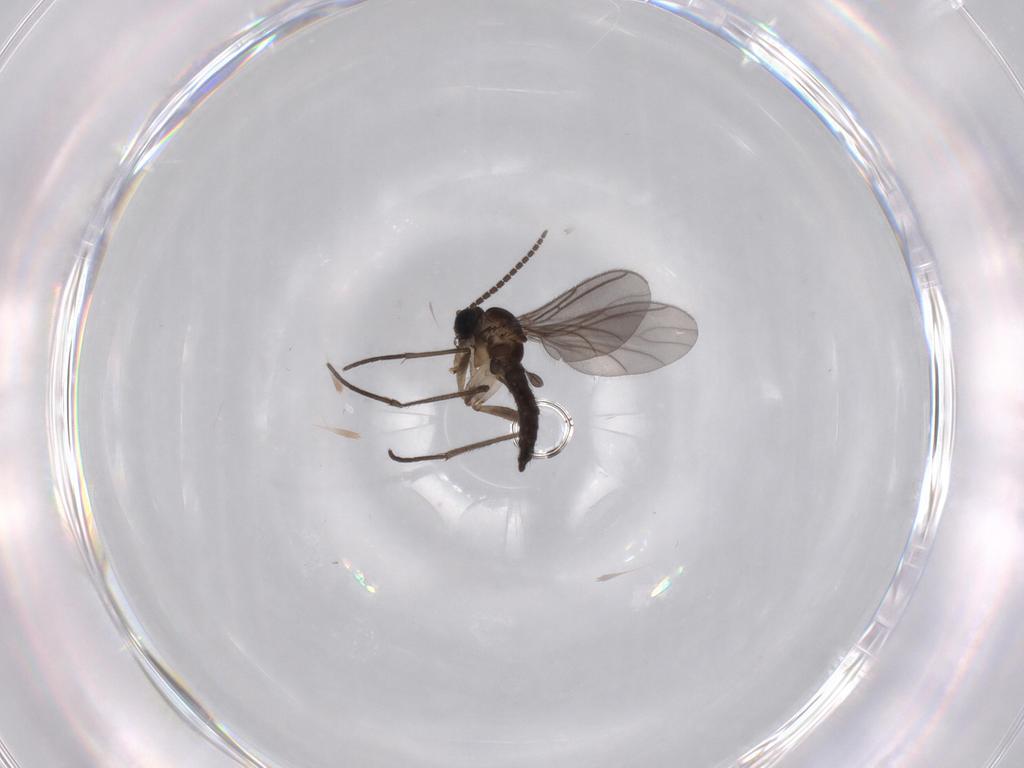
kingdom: Animalia
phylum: Arthropoda
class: Insecta
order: Diptera
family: Sciaridae
